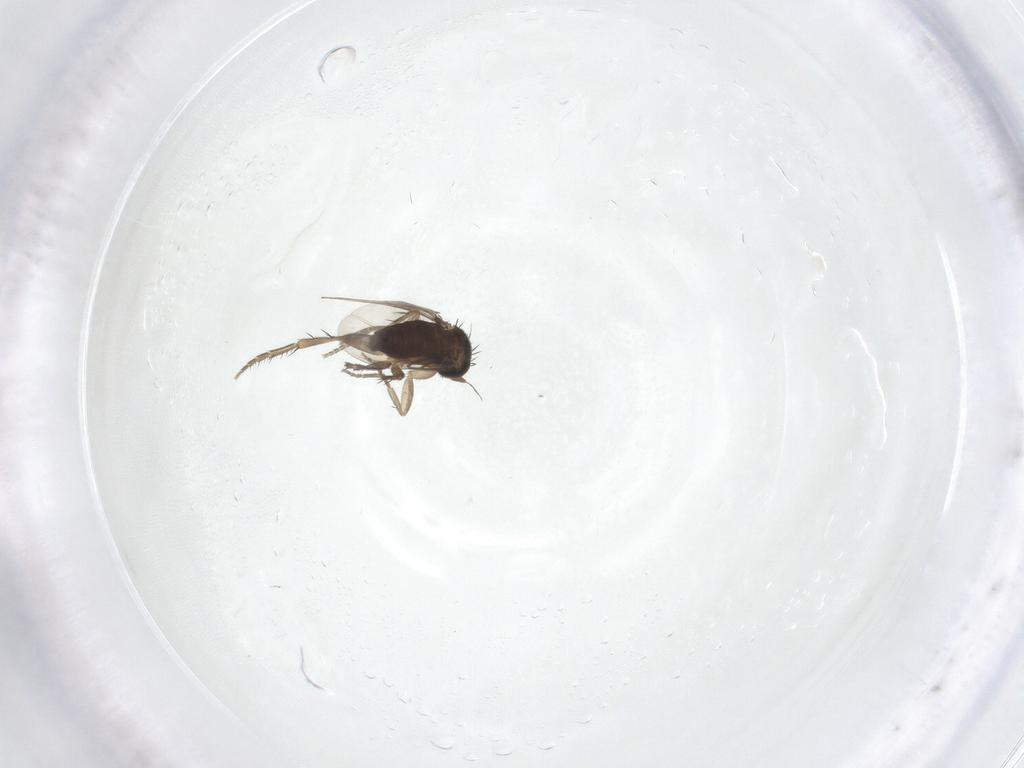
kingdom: Animalia
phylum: Arthropoda
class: Insecta
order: Diptera
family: Phoridae
